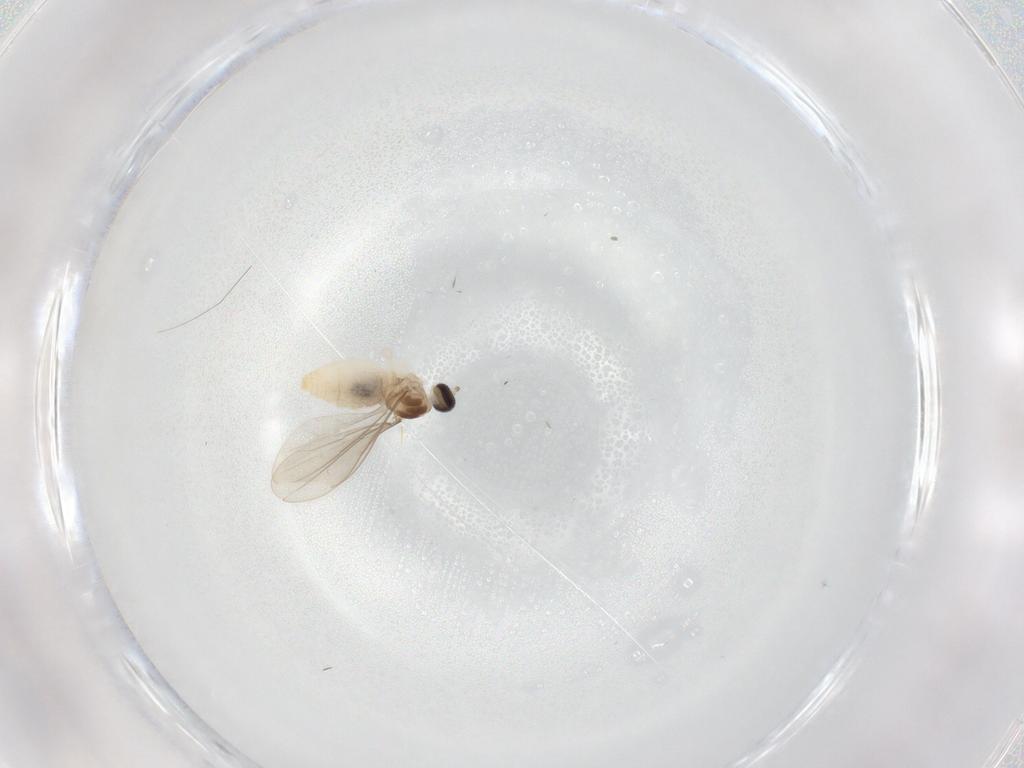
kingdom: Animalia
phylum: Arthropoda
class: Insecta
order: Diptera
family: Cecidomyiidae
